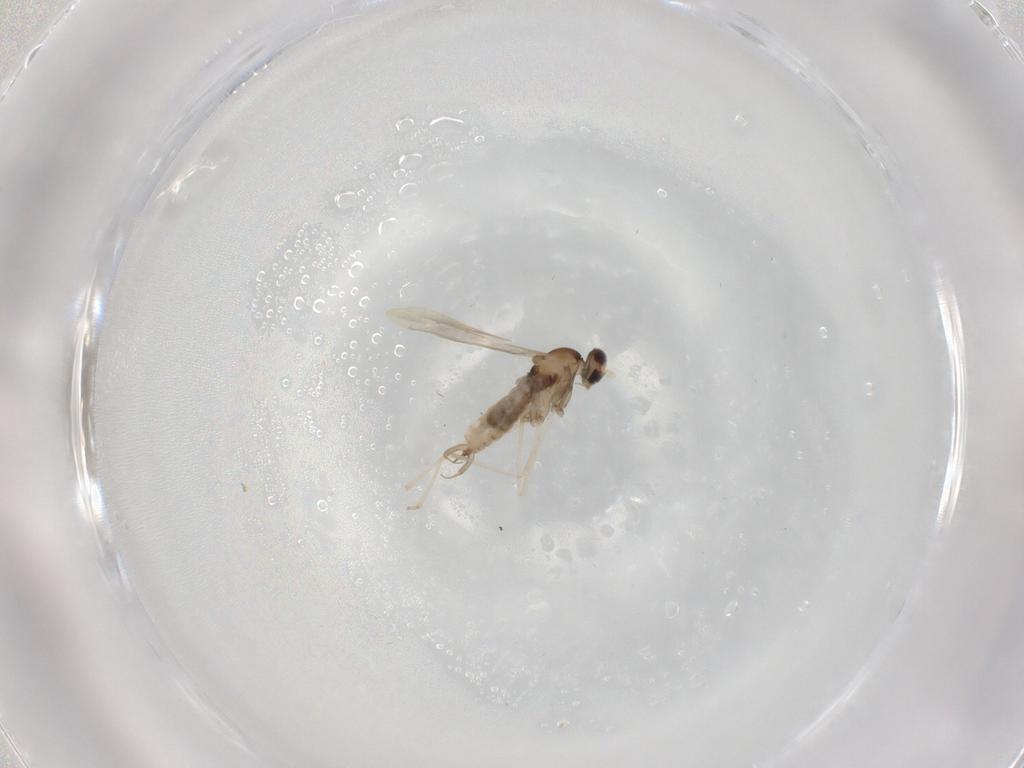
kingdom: Animalia
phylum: Arthropoda
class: Insecta
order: Diptera
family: Cecidomyiidae
